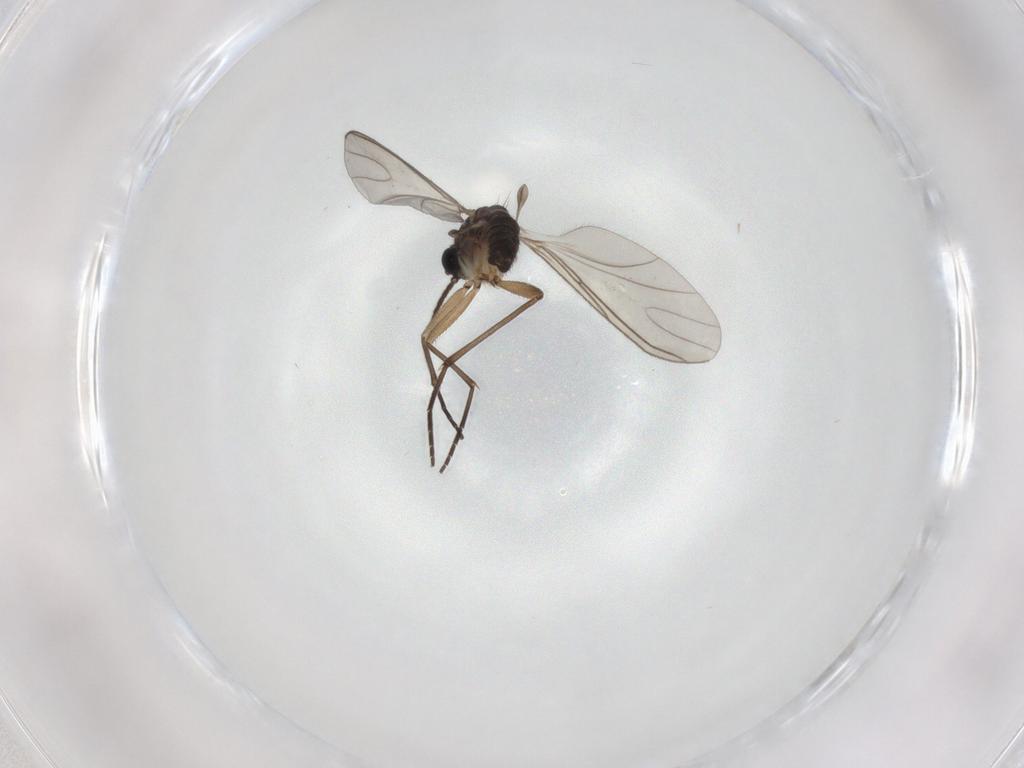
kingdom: Animalia
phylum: Arthropoda
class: Insecta
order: Diptera
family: Sciaridae
